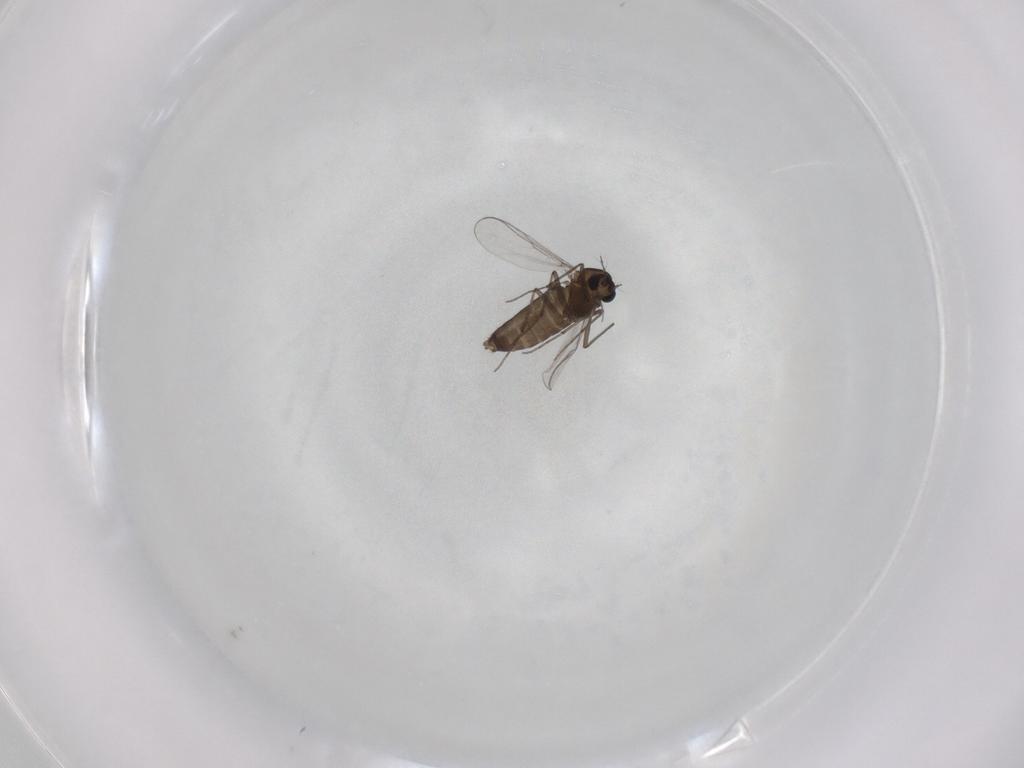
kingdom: Animalia
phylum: Arthropoda
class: Insecta
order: Diptera
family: Chironomidae
